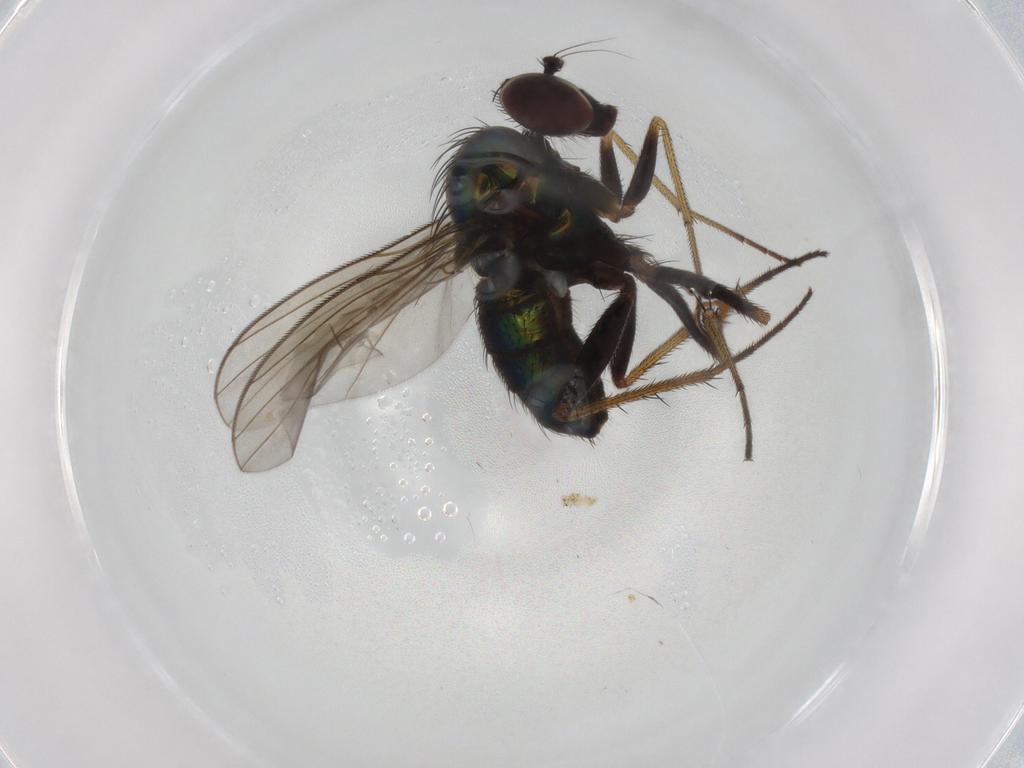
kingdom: Animalia
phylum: Arthropoda
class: Insecta
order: Diptera
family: Dolichopodidae
